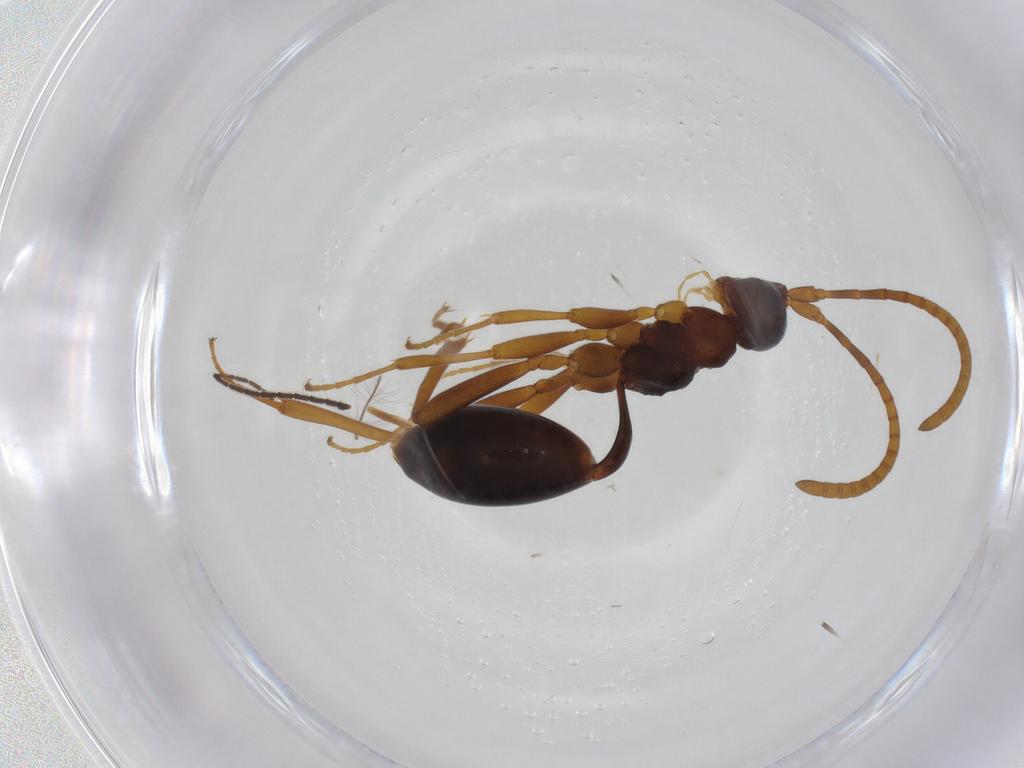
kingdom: Animalia
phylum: Arthropoda
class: Insecta
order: Hymenoptera
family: Ichneumonidae
